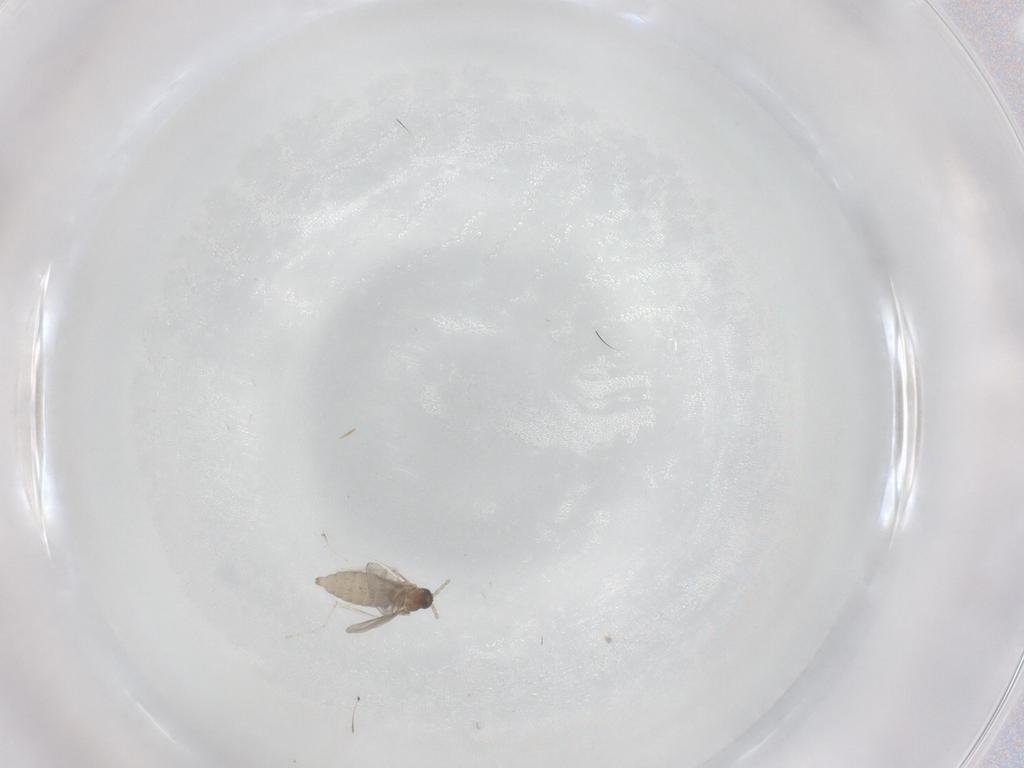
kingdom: Animalia
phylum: Arthropoda
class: Insecta
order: Diptera
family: Cecidomyiidae
